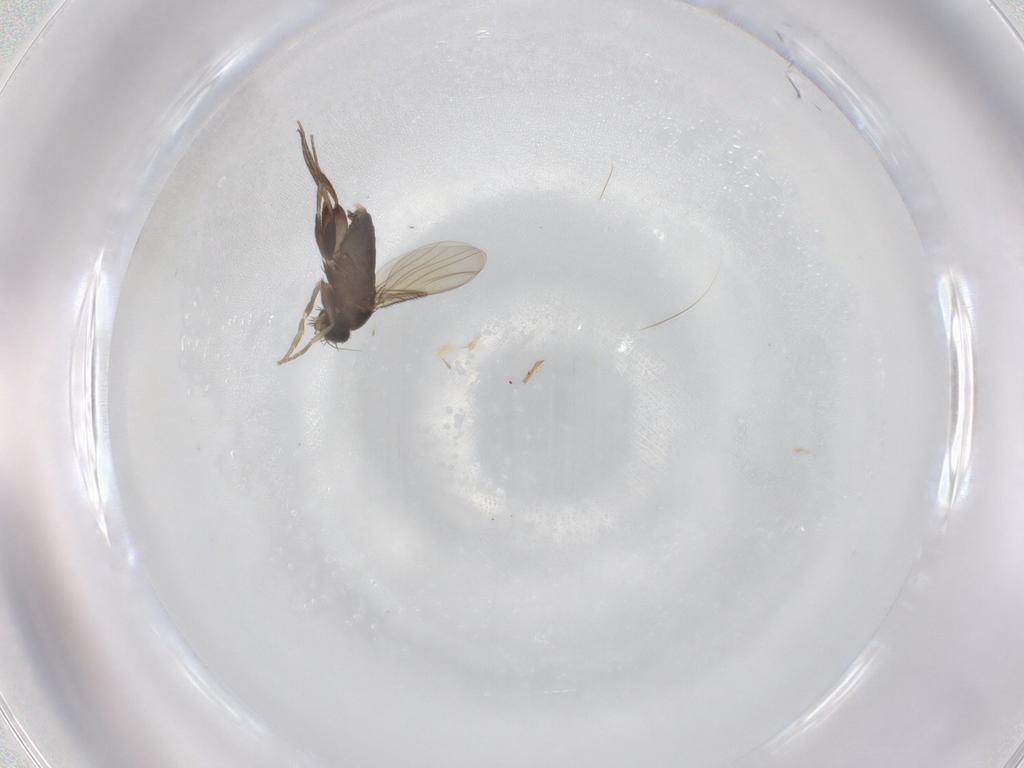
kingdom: Animalia
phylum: Arthropoda
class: Insecta
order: Diptera
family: Phoridae
